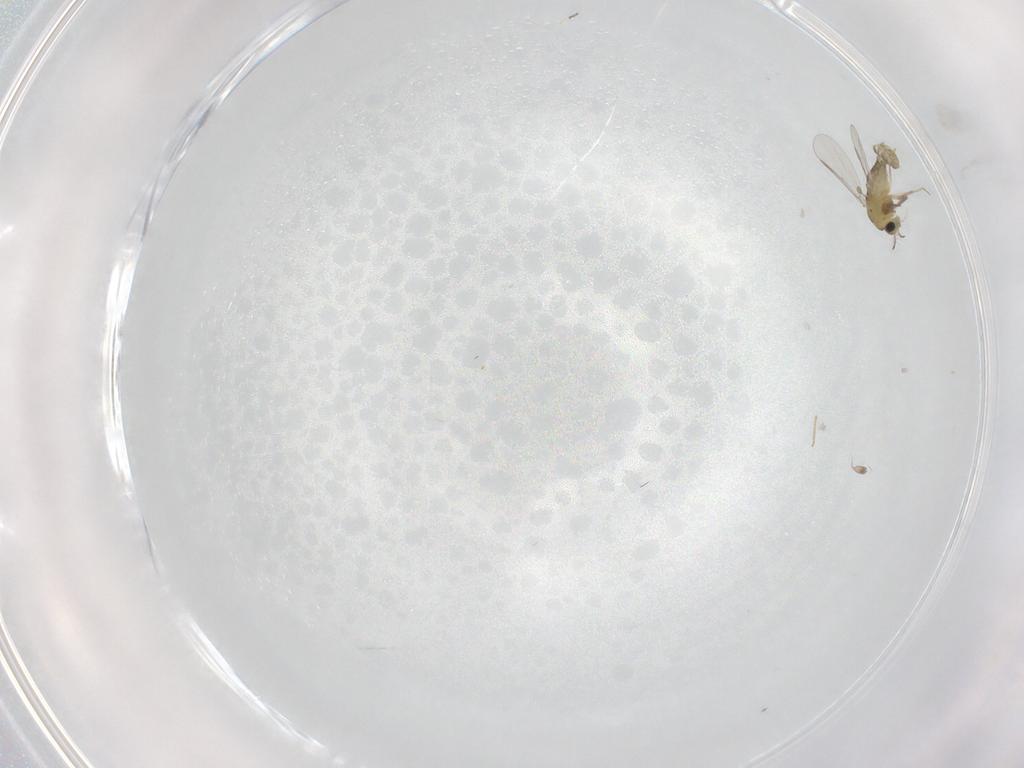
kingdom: Animalia
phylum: Arthropoda
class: Insecta
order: Diptera
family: Chironomidae
